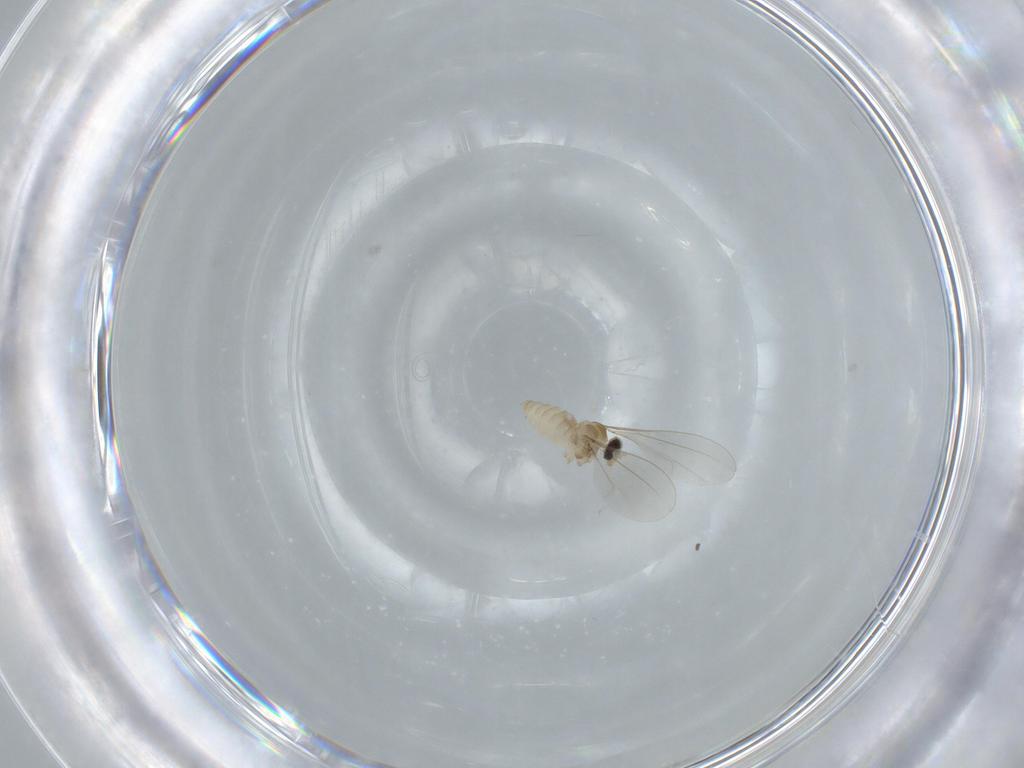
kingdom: Animalia
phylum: Arthropoda
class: Insecta
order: Diptera
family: Cecidomyiidae
